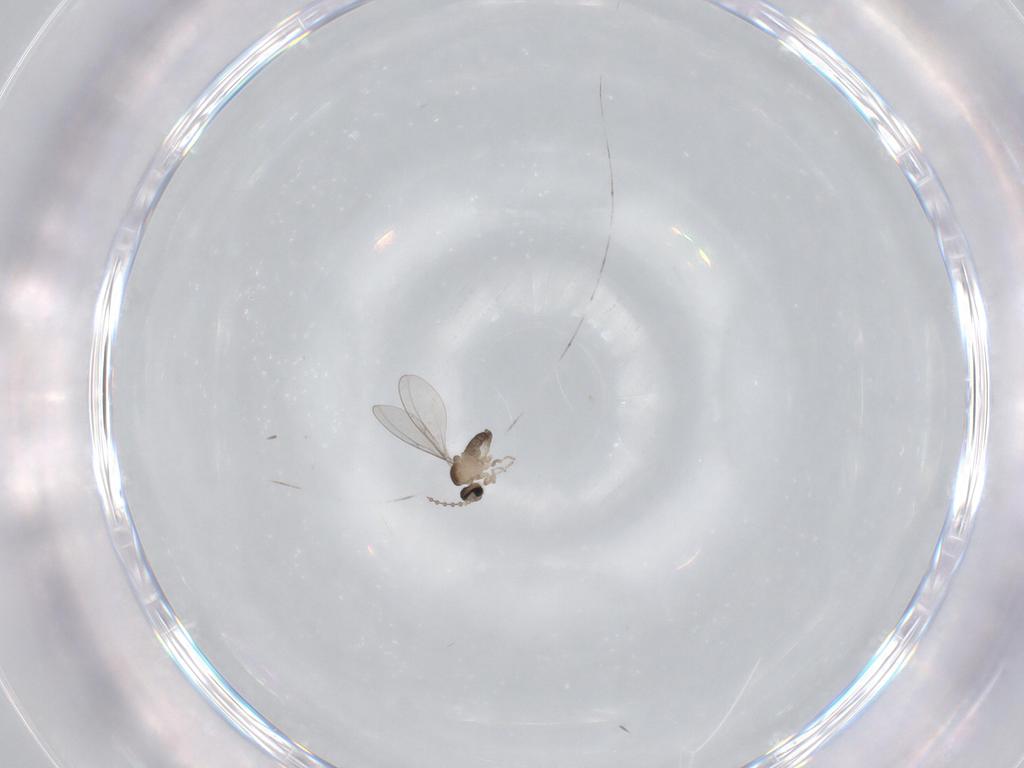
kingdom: Animalia
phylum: Arthropoda
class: Insecta
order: Diptera
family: Cecidomyiidae
